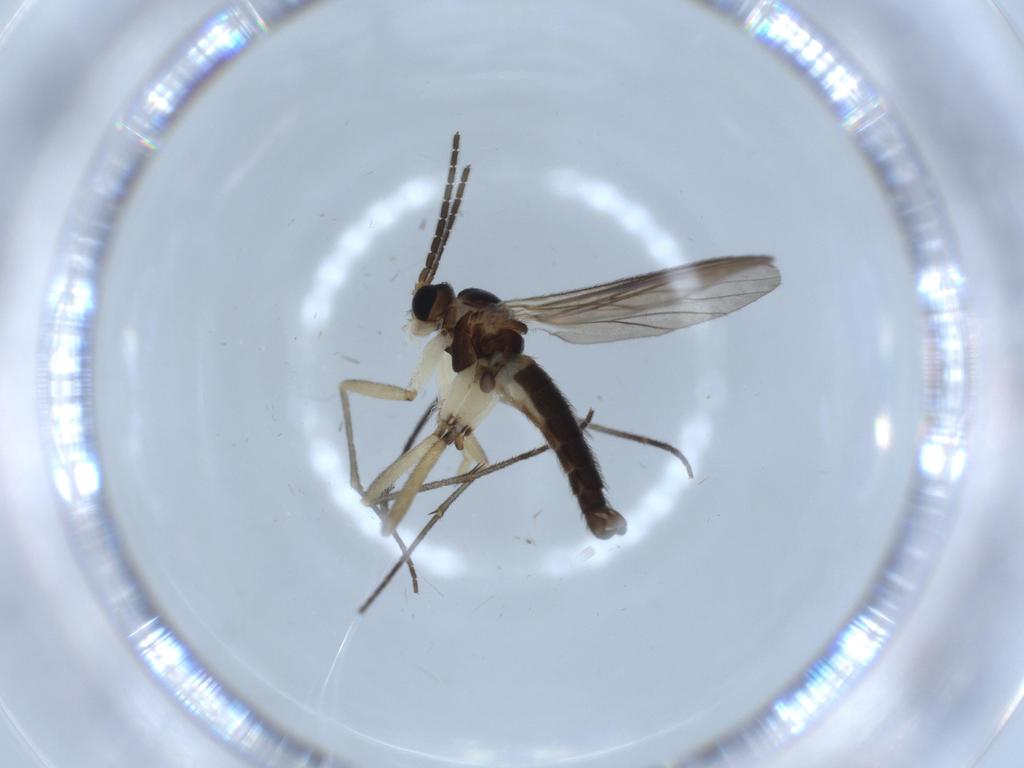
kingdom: Animalia
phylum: Arthropoda
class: Insecta
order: Diptera
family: Sciaridae
